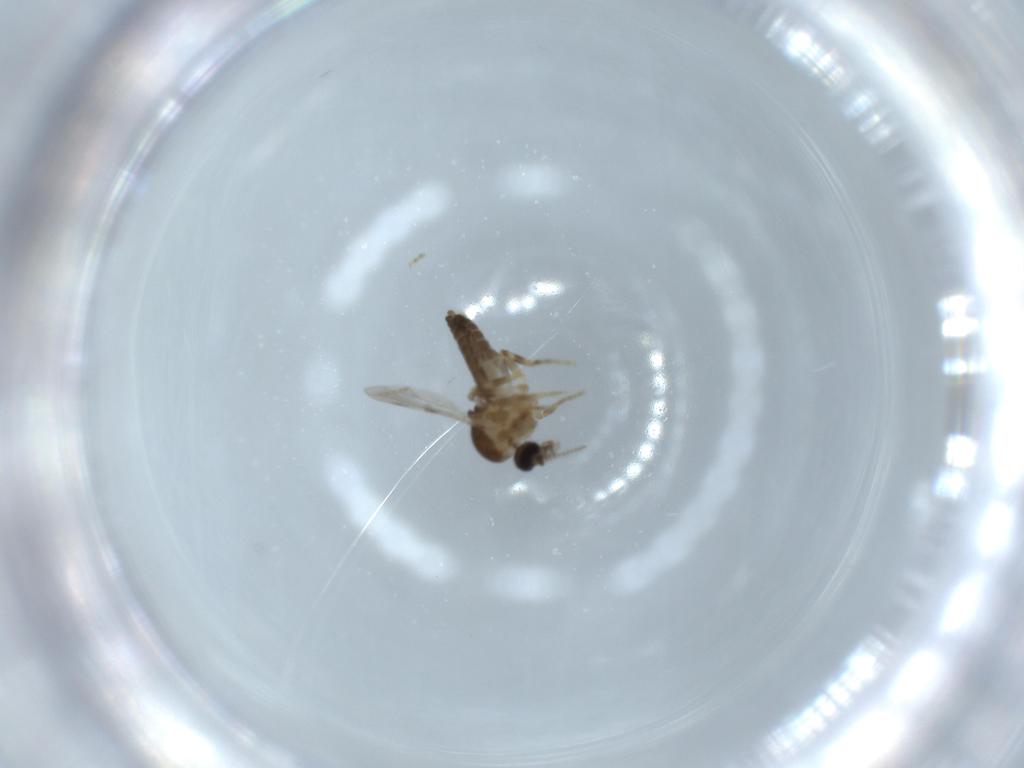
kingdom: Animalia
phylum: Arthropoda
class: Insecta
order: Diptera
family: Ceratopogonidae
